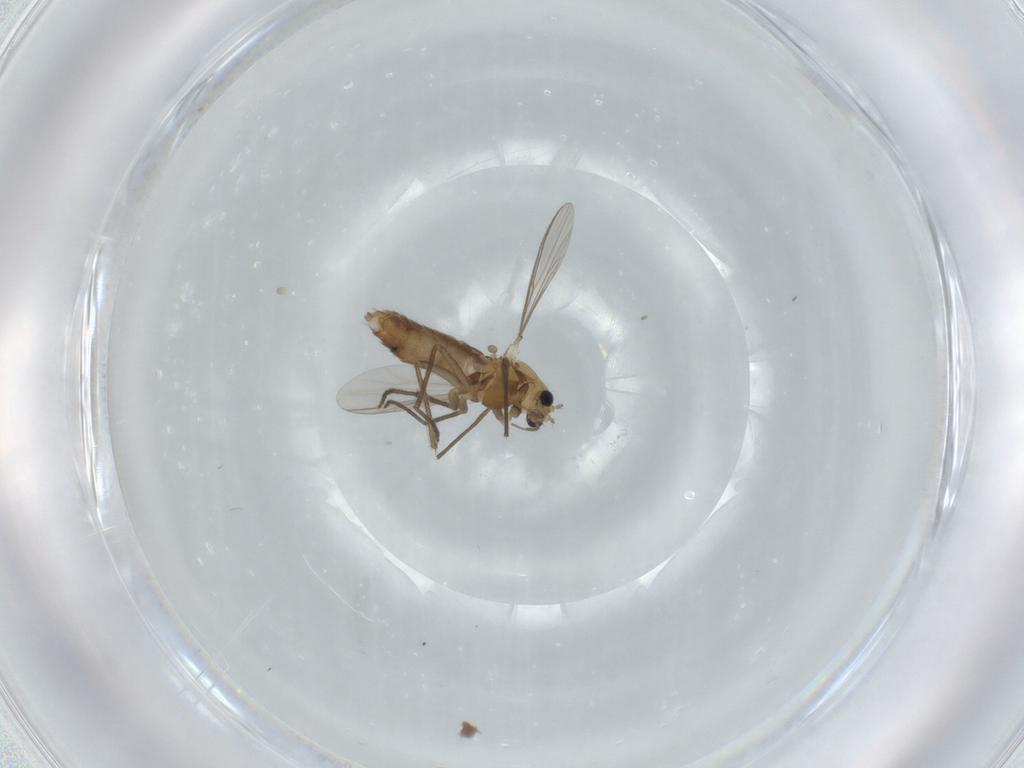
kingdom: Animalia
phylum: Arthropoda
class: Insecta
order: Diptera
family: Chironomidae
